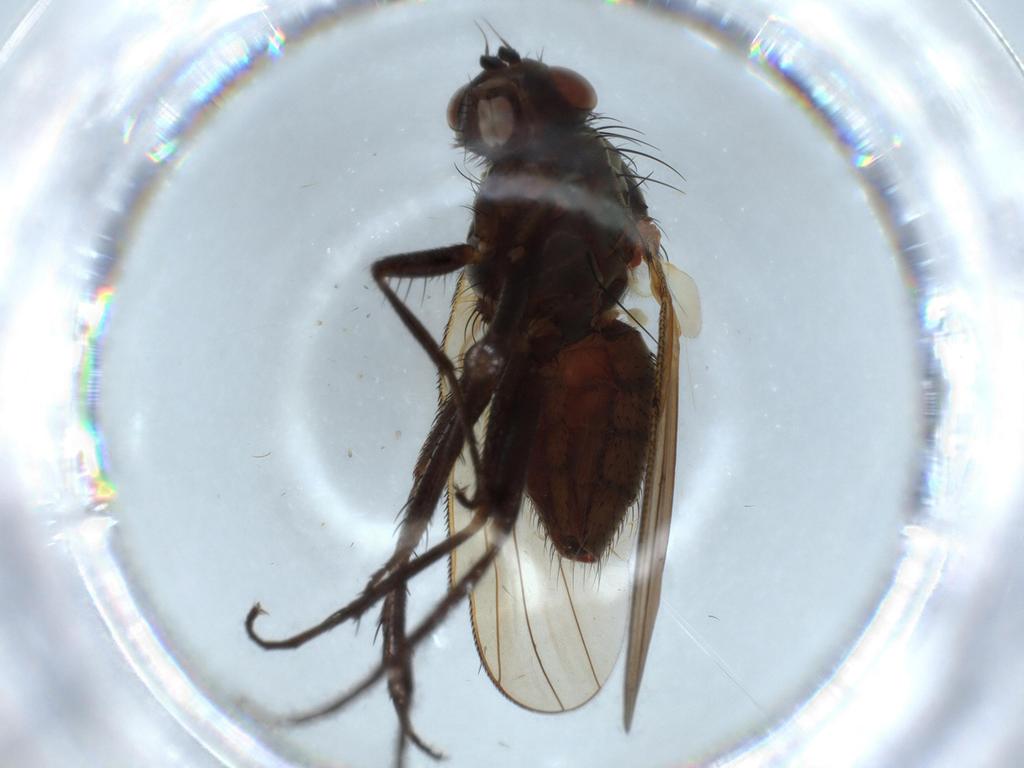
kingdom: Animalia
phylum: Arthropoda
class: Insecta
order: Diptera
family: Anthomyiidae
